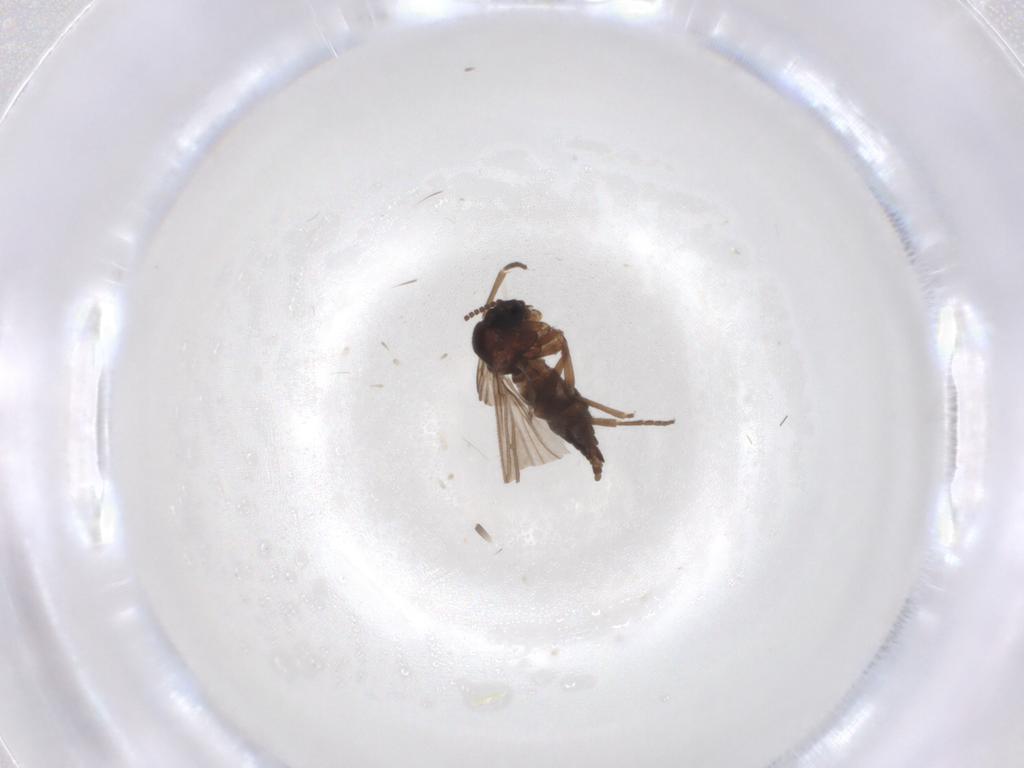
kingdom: Animalia
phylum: Arthropoda
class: Insecta
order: Diptera
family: Sciaridae
